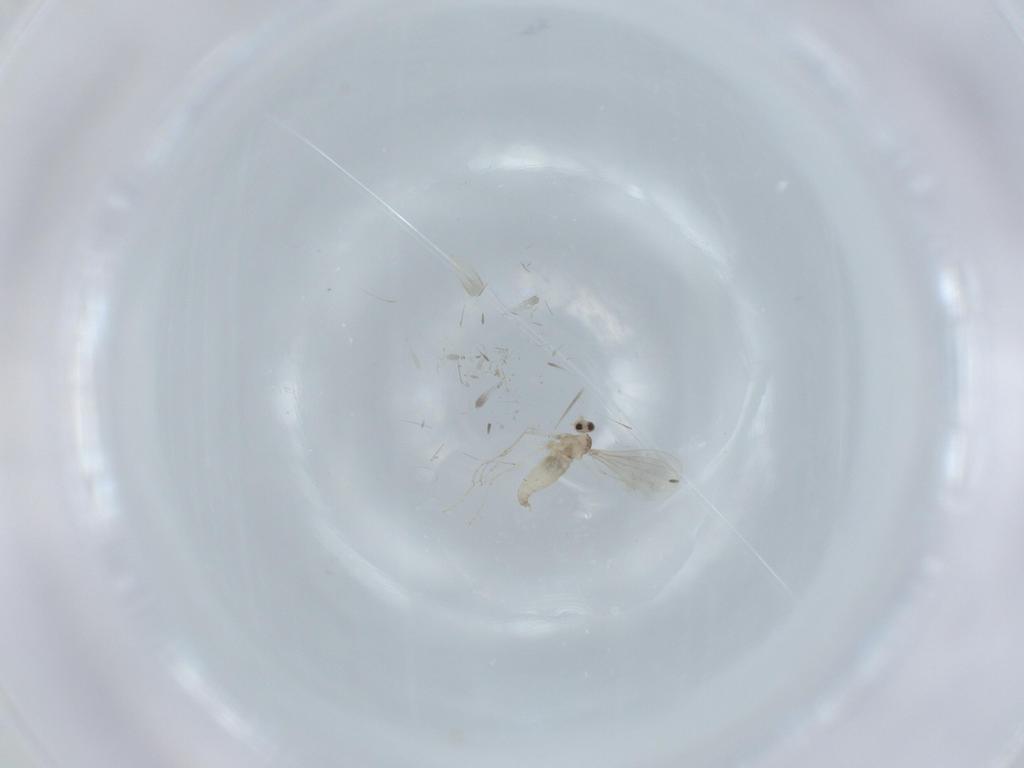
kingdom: Animalia
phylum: Arthropoda
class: Insecta
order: Diptera
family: Cecidomyiidae
